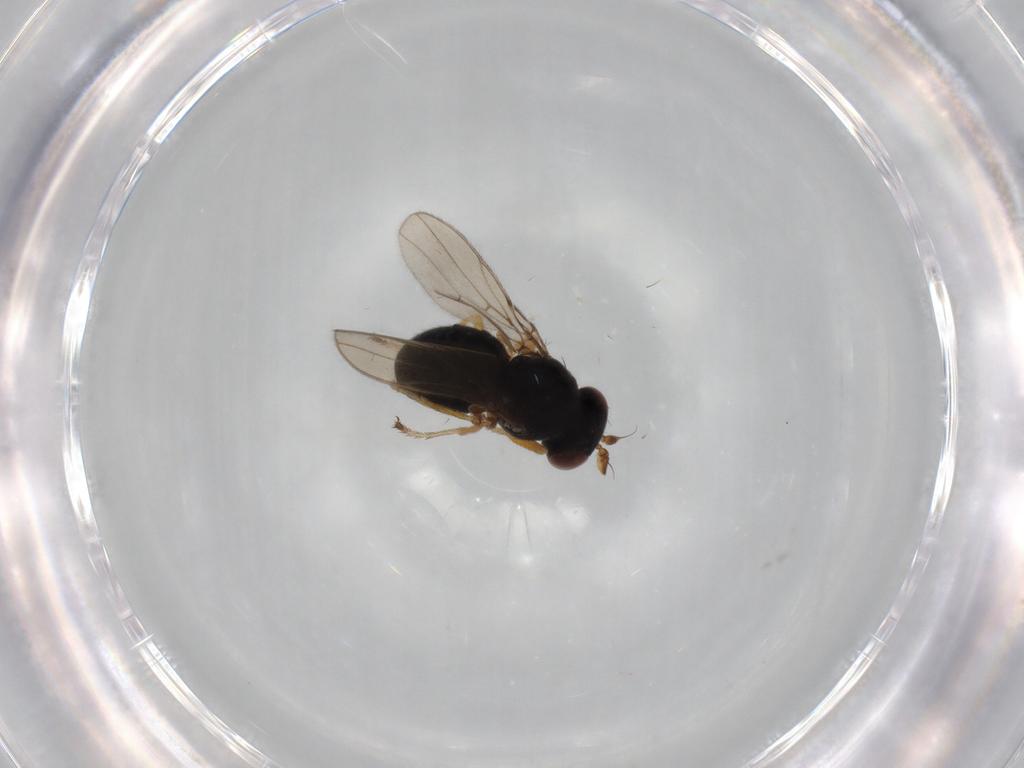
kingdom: Animalia
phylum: Arthropoda
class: Insecta
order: Diptera
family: Ephydridae
